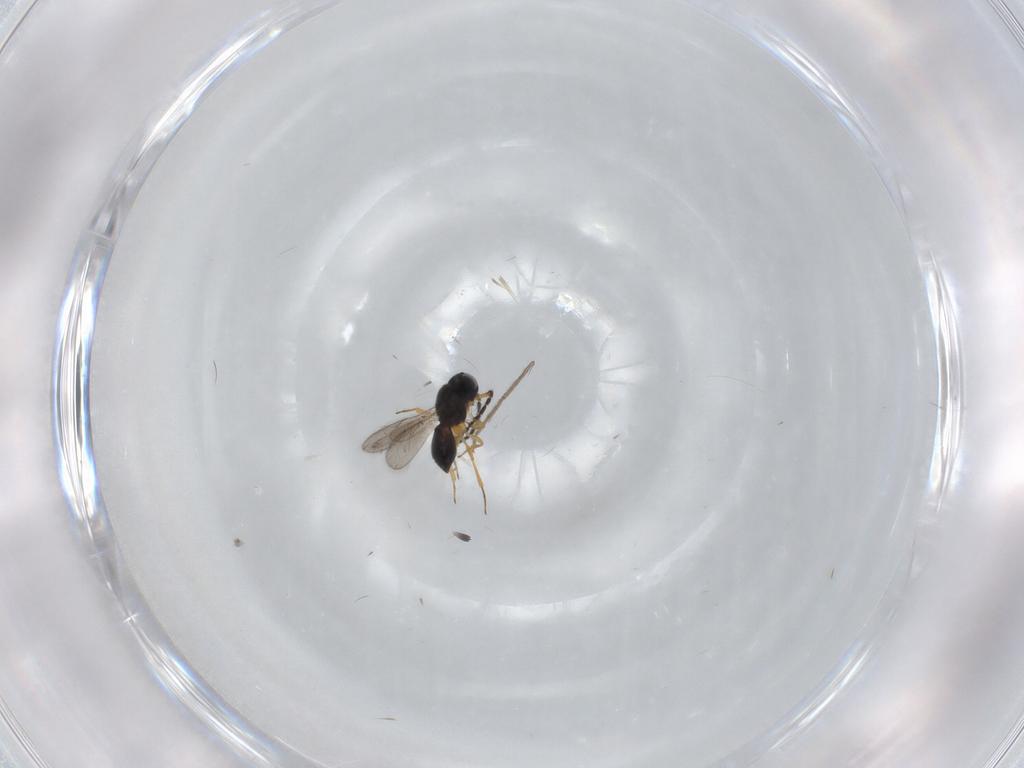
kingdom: Animalia
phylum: Arthropoda
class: Insecta
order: Hymenoptera
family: Scelionidae
